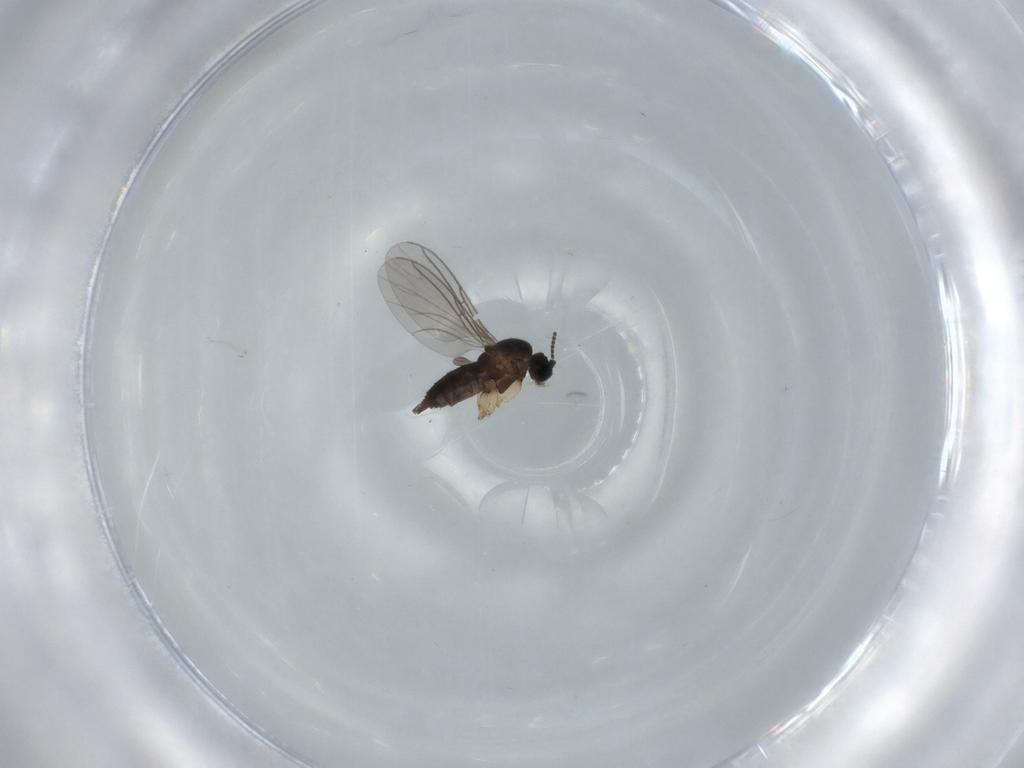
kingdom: Animalia
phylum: Arthropoda
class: Insecta
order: Diptera
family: Sciaridae
